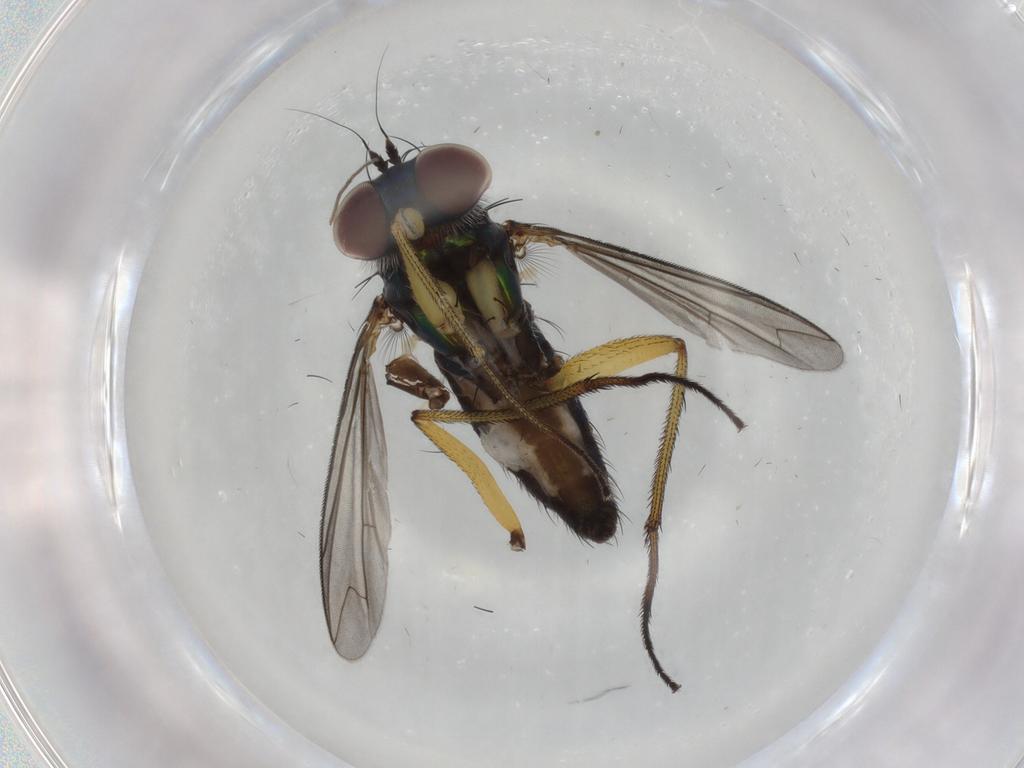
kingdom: Animalia
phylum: Arthropoda
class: Insecta
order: Diptera
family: Dolichopodidae
